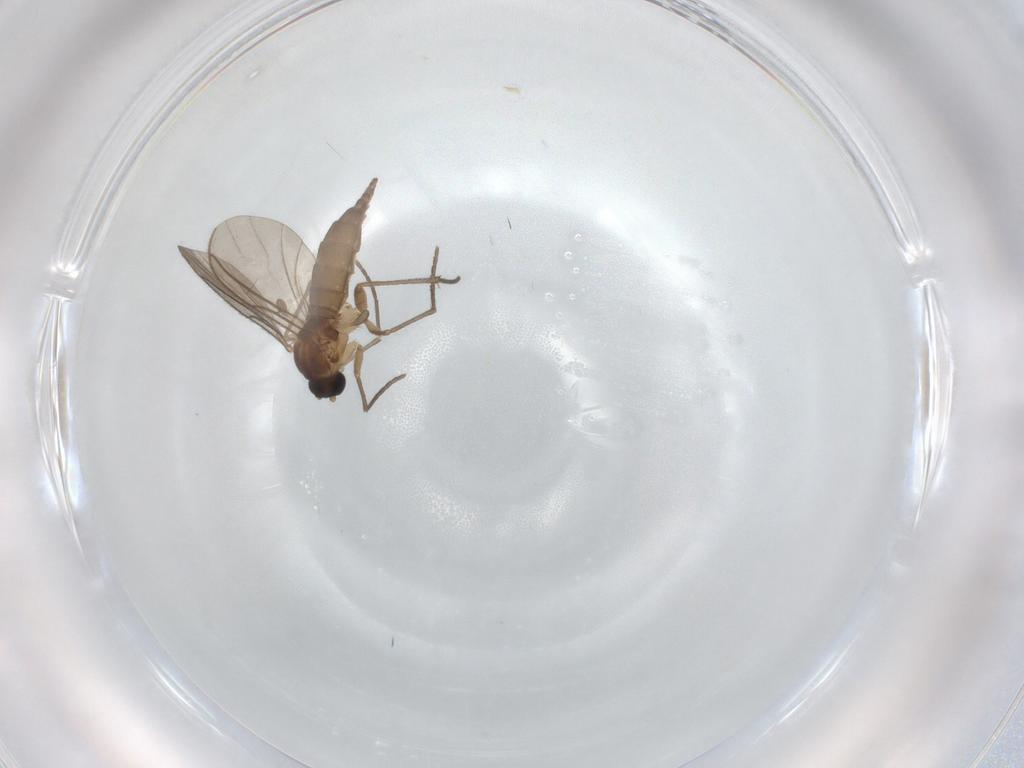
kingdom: Animalia
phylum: Arthropoda
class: Insecta
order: Diptera
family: Sciaridae
